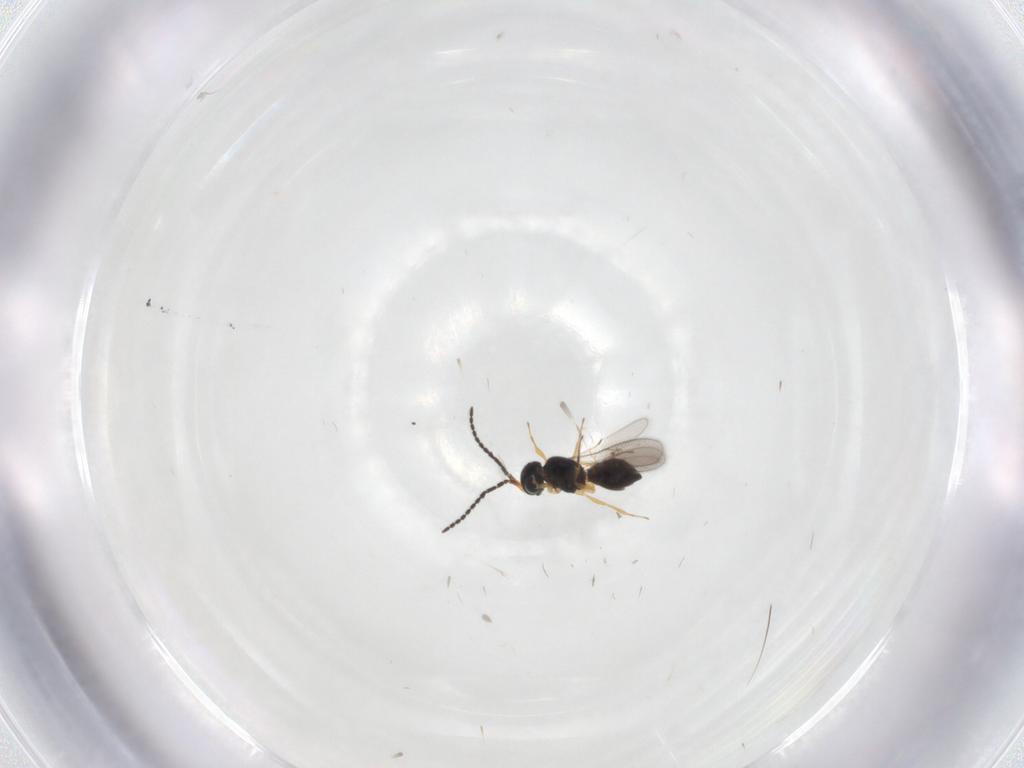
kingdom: Animalia
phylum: Arthropoda
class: Insecta
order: Hymenoptera
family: Scelionidae
